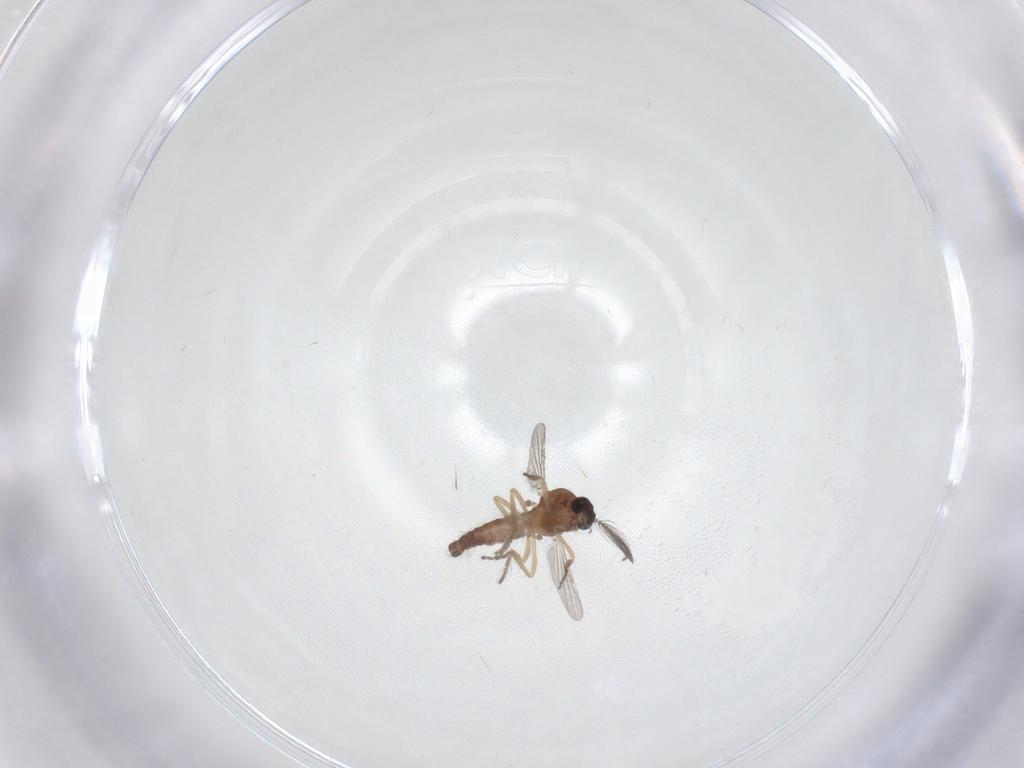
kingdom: Animalia
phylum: Arthropoda
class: Insecta
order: Diptera
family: Ceratopogonidae
